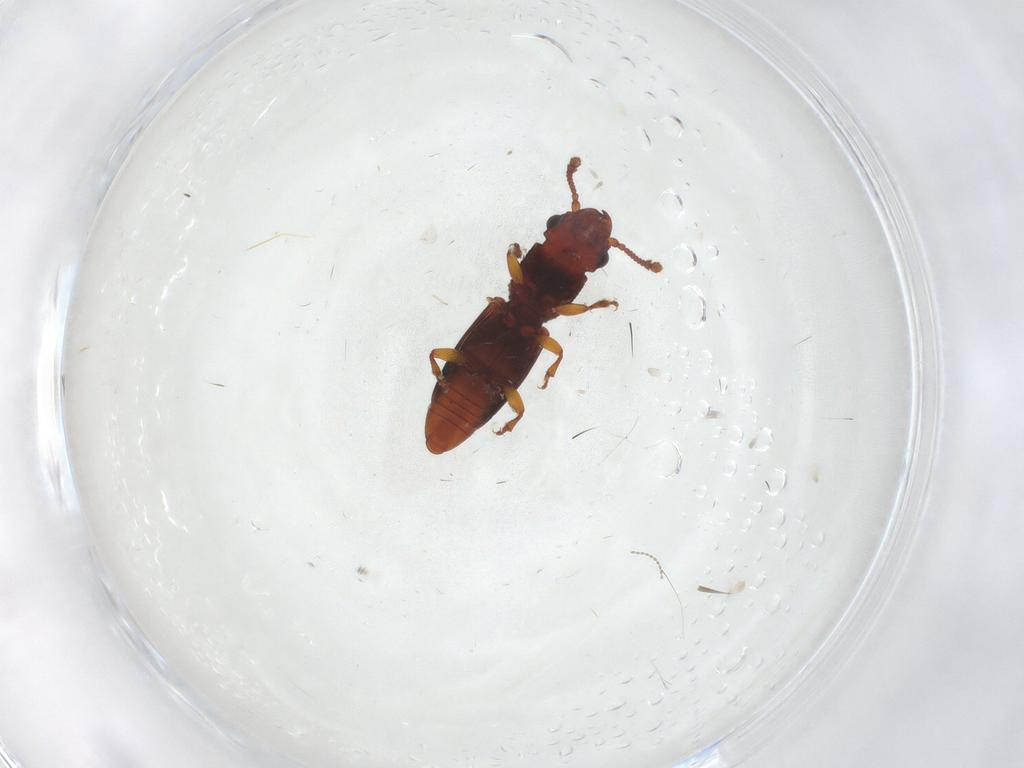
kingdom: Animalia
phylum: Arthropoda
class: Insecta
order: Coleoptera
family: Monotomidae
